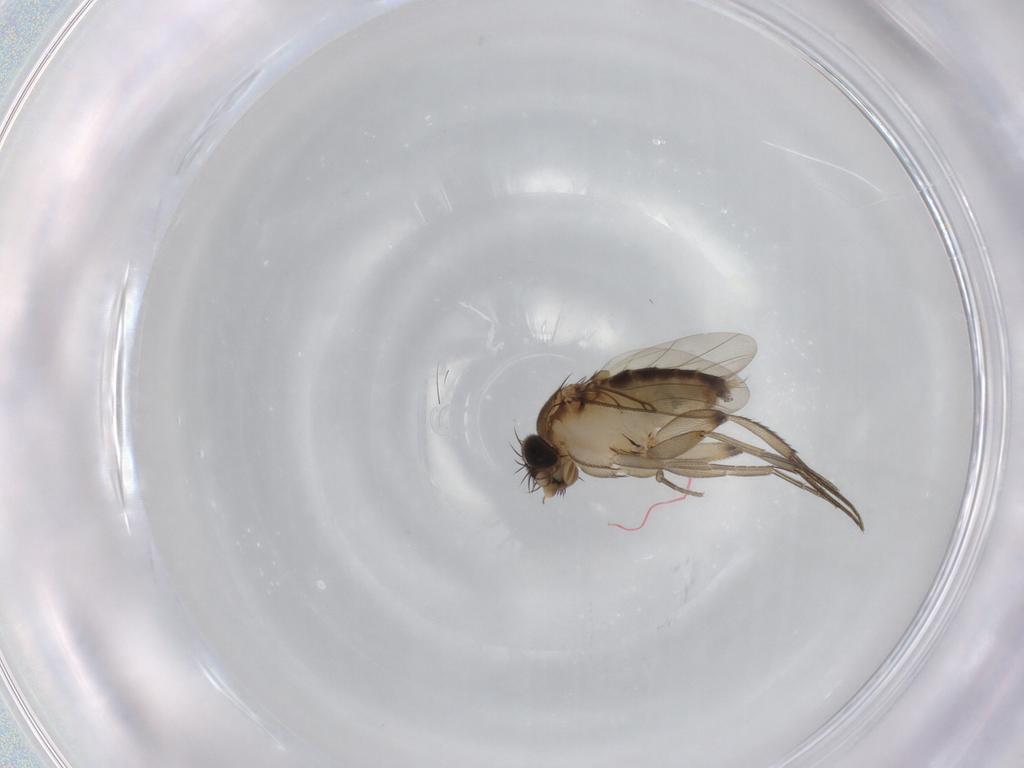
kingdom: Animalia
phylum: Arthropoda
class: Insecta
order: Diptera
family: Phoridae
